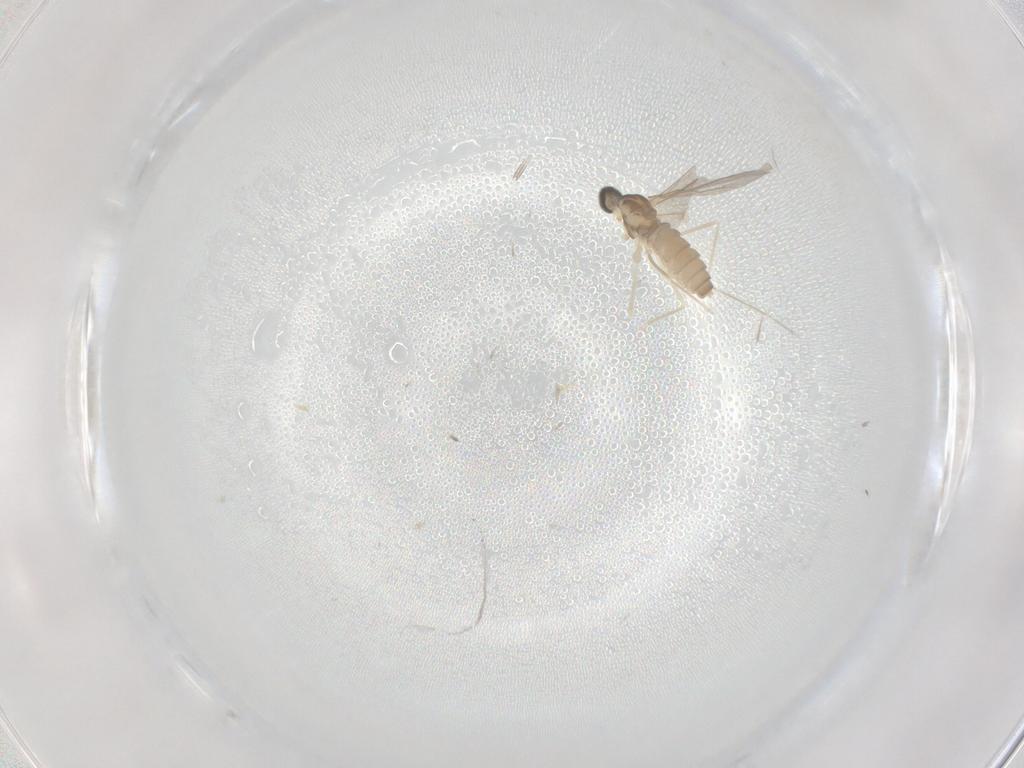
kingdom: Animalia
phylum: Arthropoda
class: Insecta
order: Diptera
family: Cecidomyiidae
